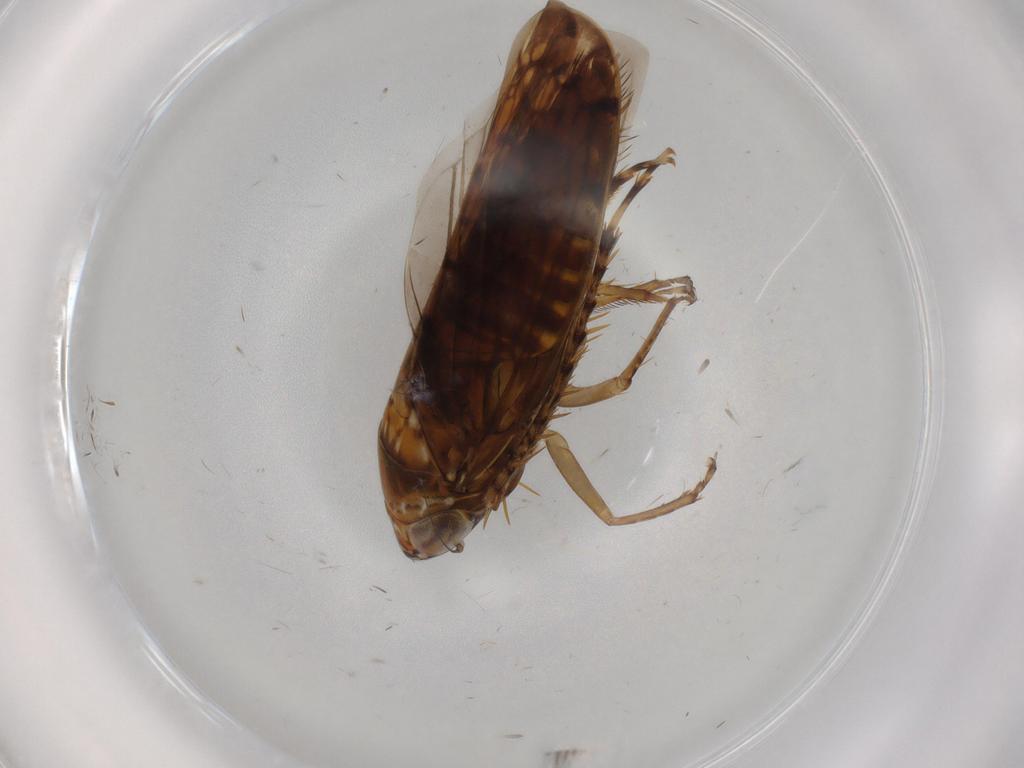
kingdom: Animalia
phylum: Arthropoda
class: Insecta
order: Hemiptera
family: Cicadellidae
